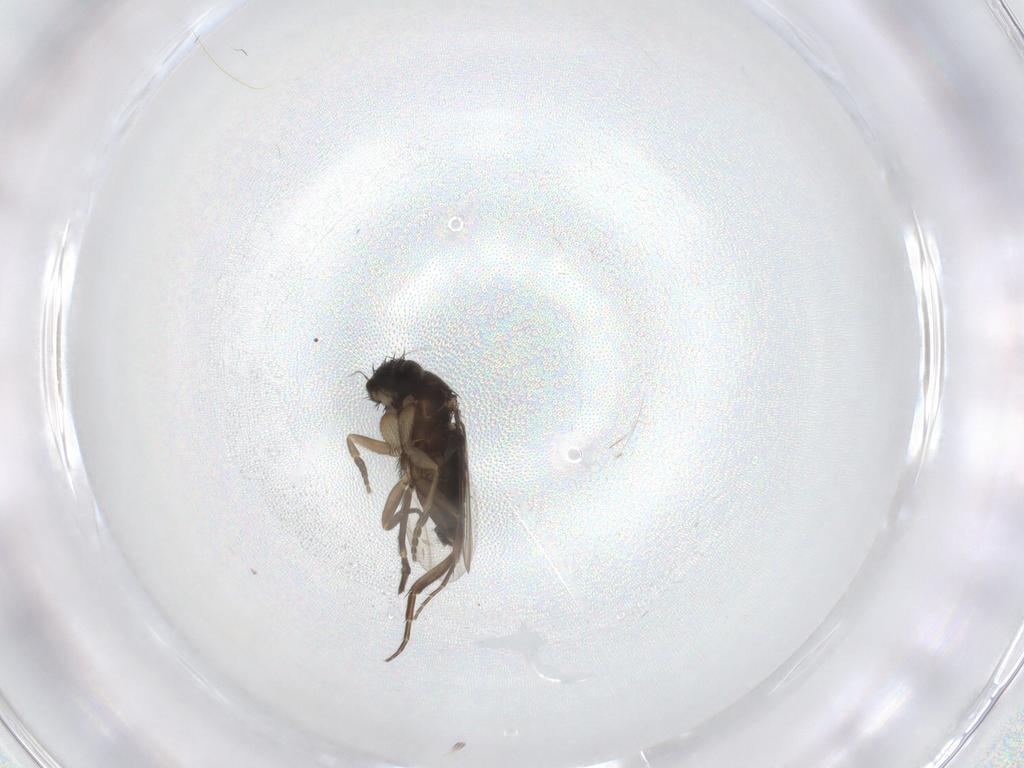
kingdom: Animalia
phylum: Arthropoda
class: Insecta
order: Diptera
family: Phoridae
